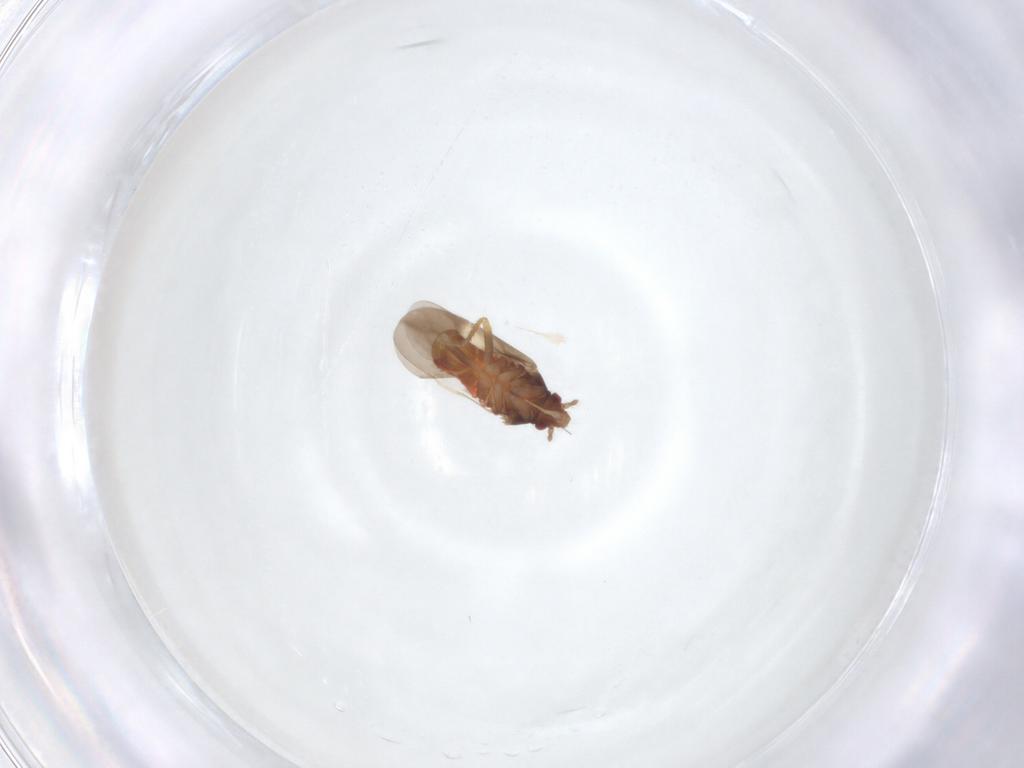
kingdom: Animalia
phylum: Arthropoda
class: Insecta
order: Hemiptera
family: Ceratocombidae
